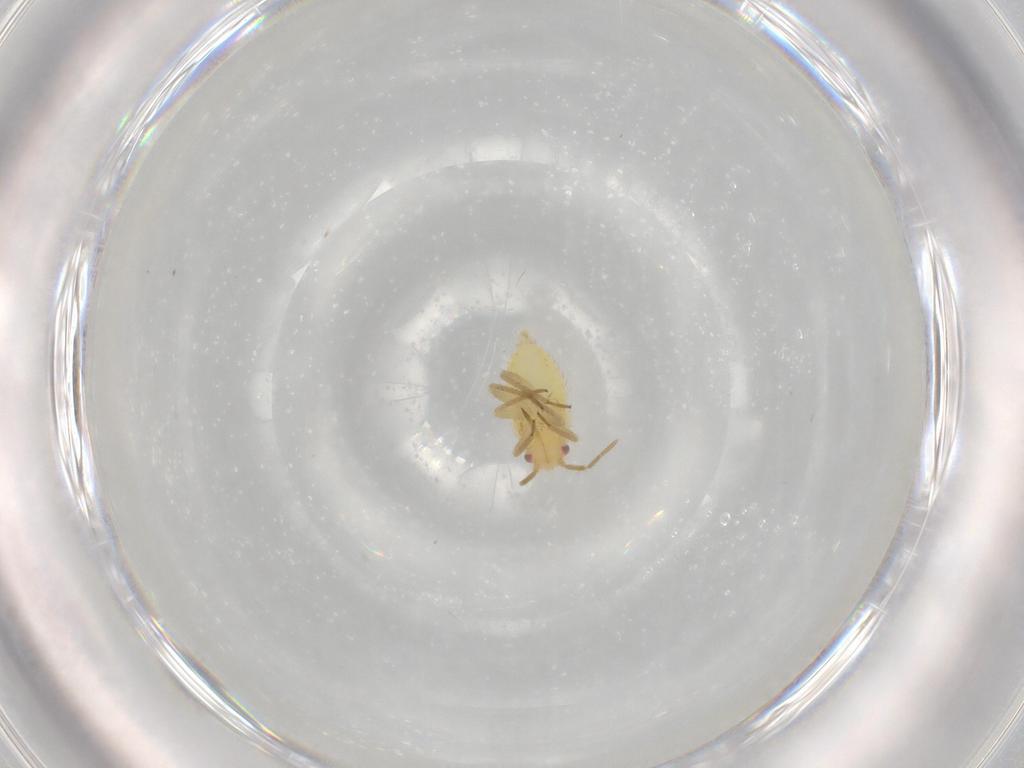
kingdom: Animalia
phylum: Arthropoda
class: Insecta
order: Hemiptera
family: Miridae
